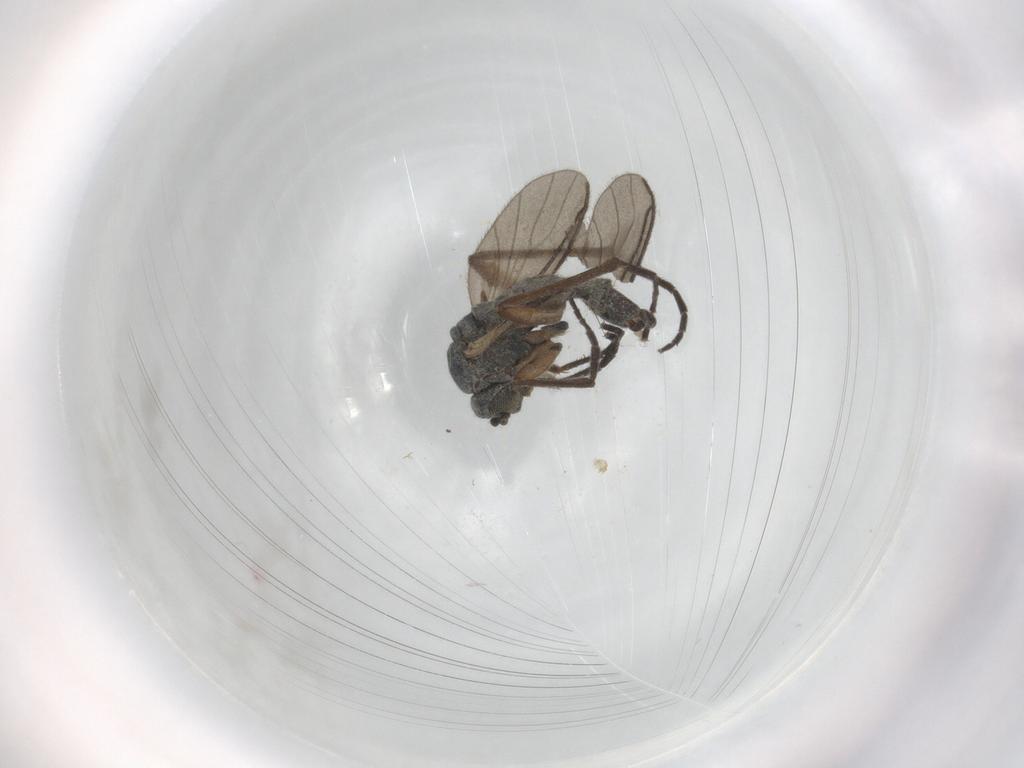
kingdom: Animalia
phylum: Arthropoda
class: Insecta
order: Diptera
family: Sciaridae
